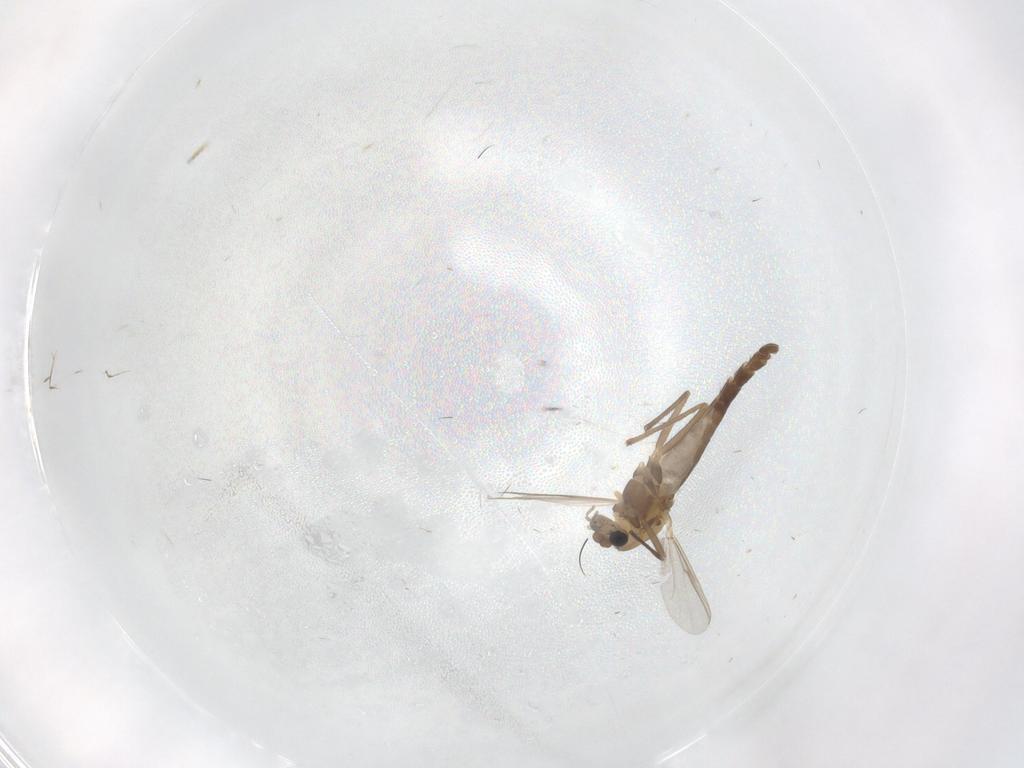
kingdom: Animalia
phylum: Arthropoda
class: Insecta
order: Diptera
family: Chironomidae
